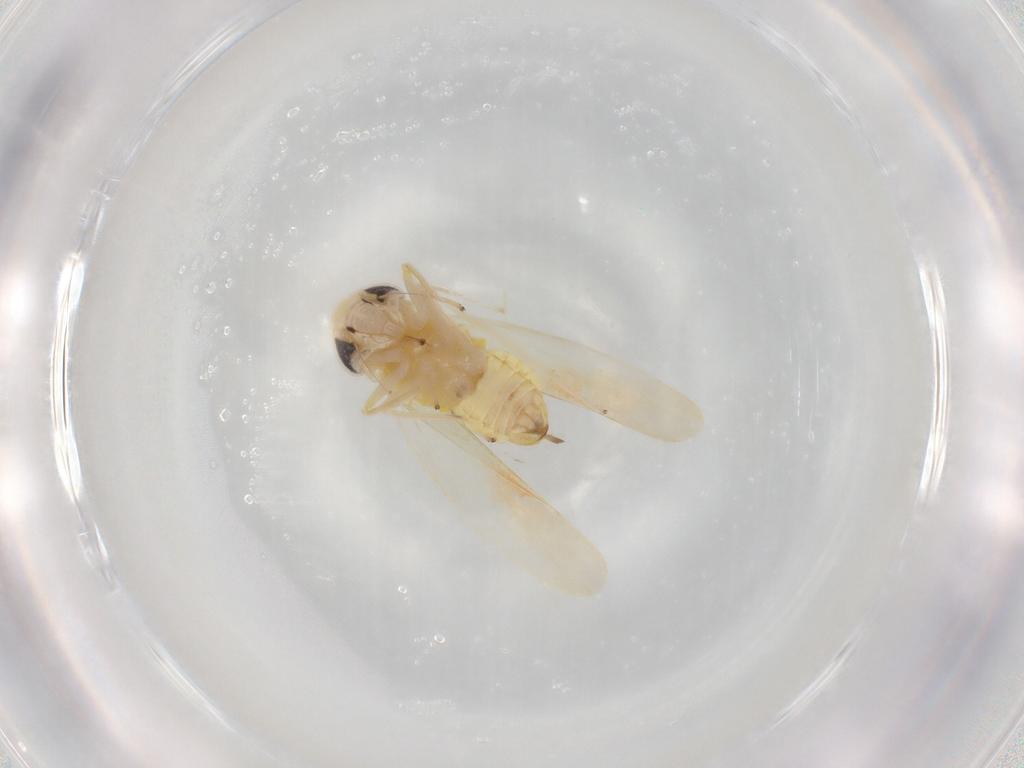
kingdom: Animalia
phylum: Arthropoda
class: Insecta
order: Hemiptera
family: Cicadellidae
